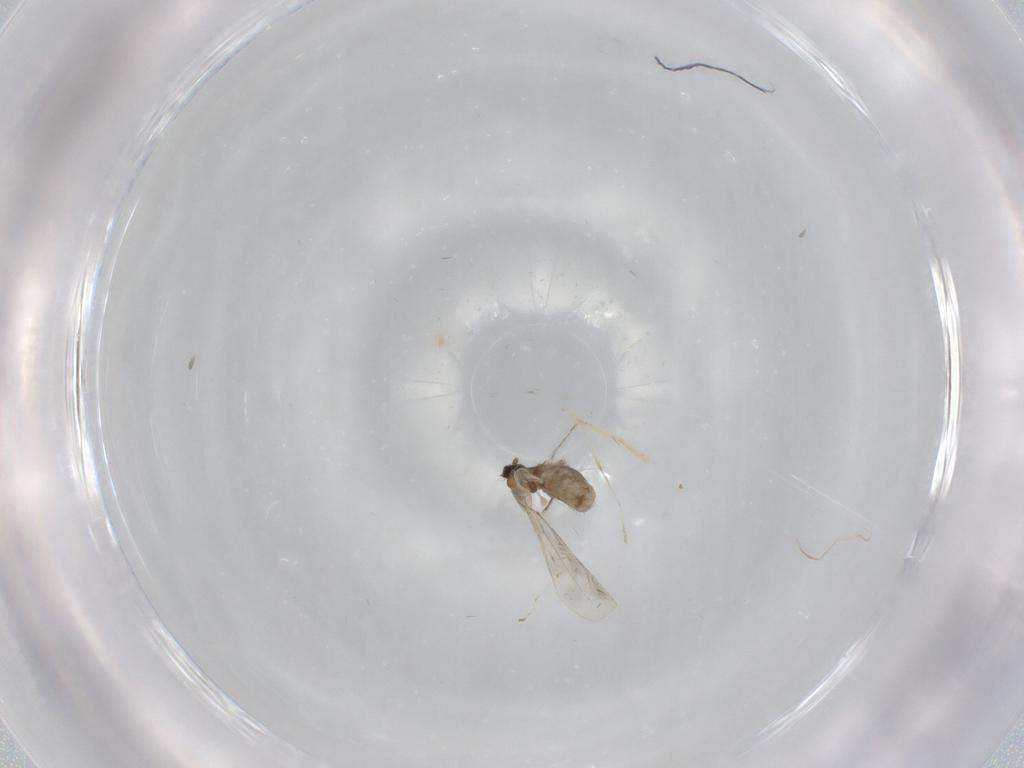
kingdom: Animalia
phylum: Arthropoda
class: Insecta
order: Diptera
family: Cecidomyiidae
